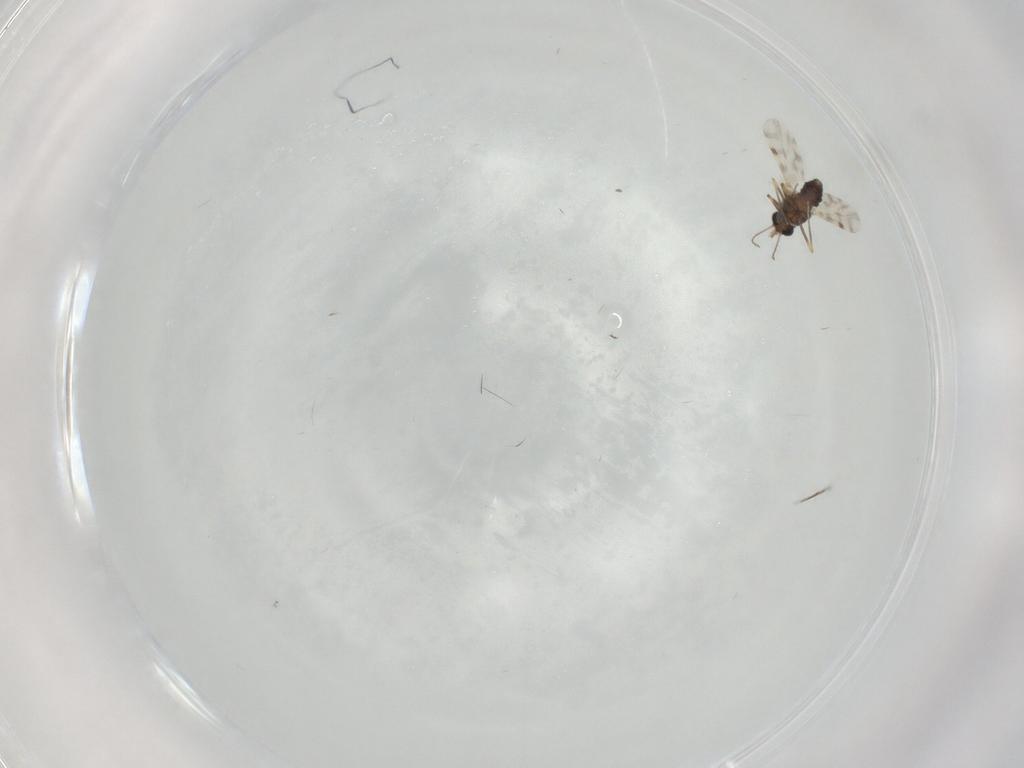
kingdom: Animalia
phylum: Arthropoda
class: Insecta
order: Diptera
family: Ceratopogonidae
